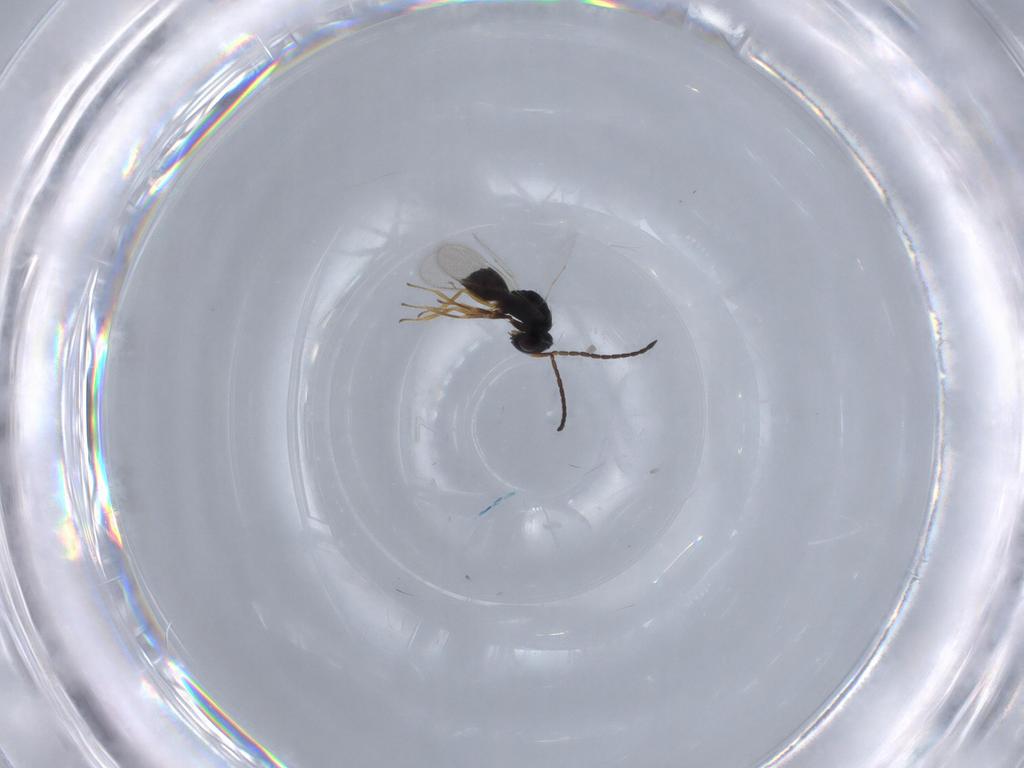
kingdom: Animalia
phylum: Arthropoda
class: Insecta
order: Hymenoptera
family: Diparidae
